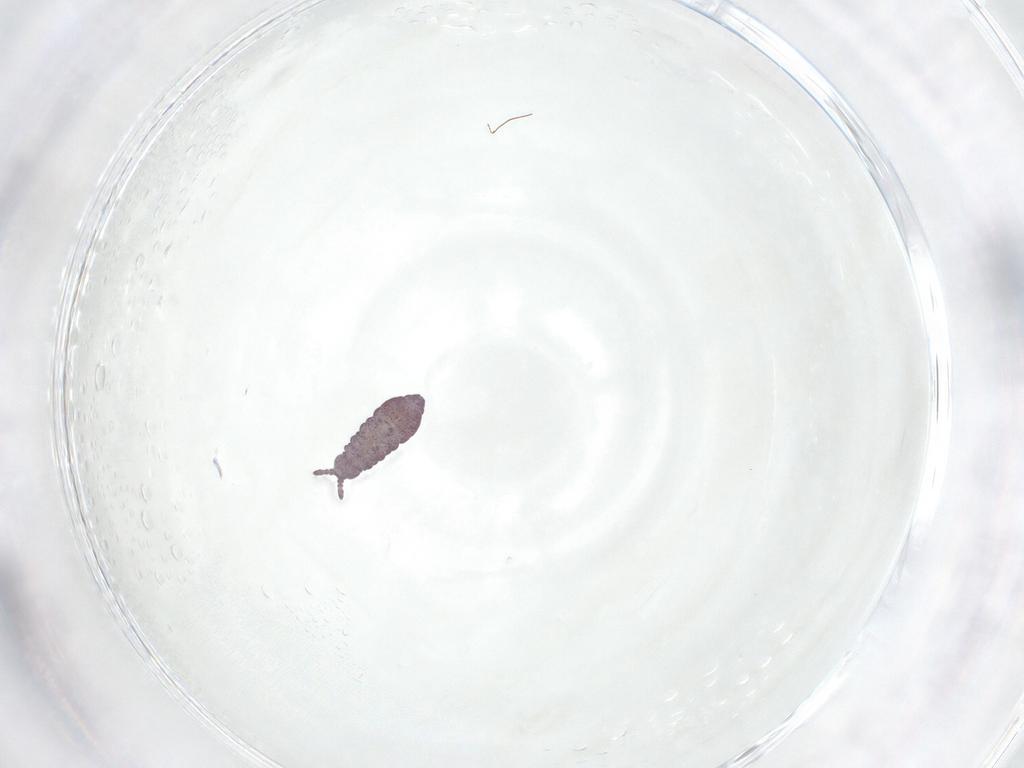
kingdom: Animalia
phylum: Arthropoda
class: Collembola
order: Poduromorpha
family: Hypogastruridae
